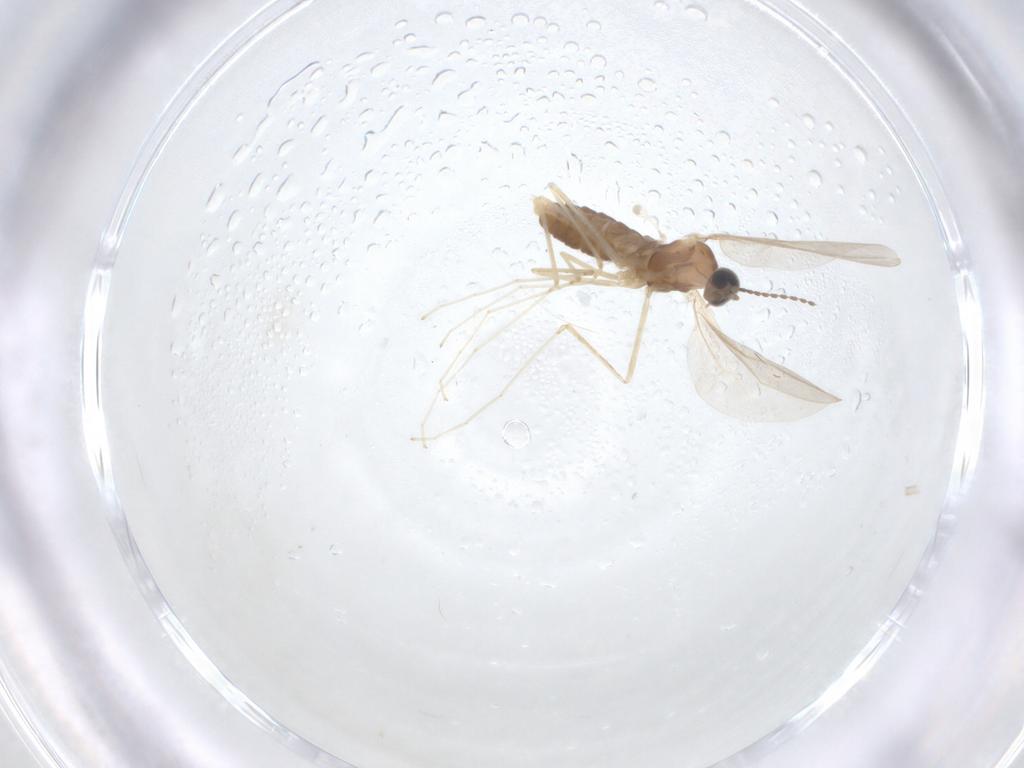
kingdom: Animalia
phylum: Arthropoda
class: Insecta
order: Diptera
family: Cecidomyiidae
